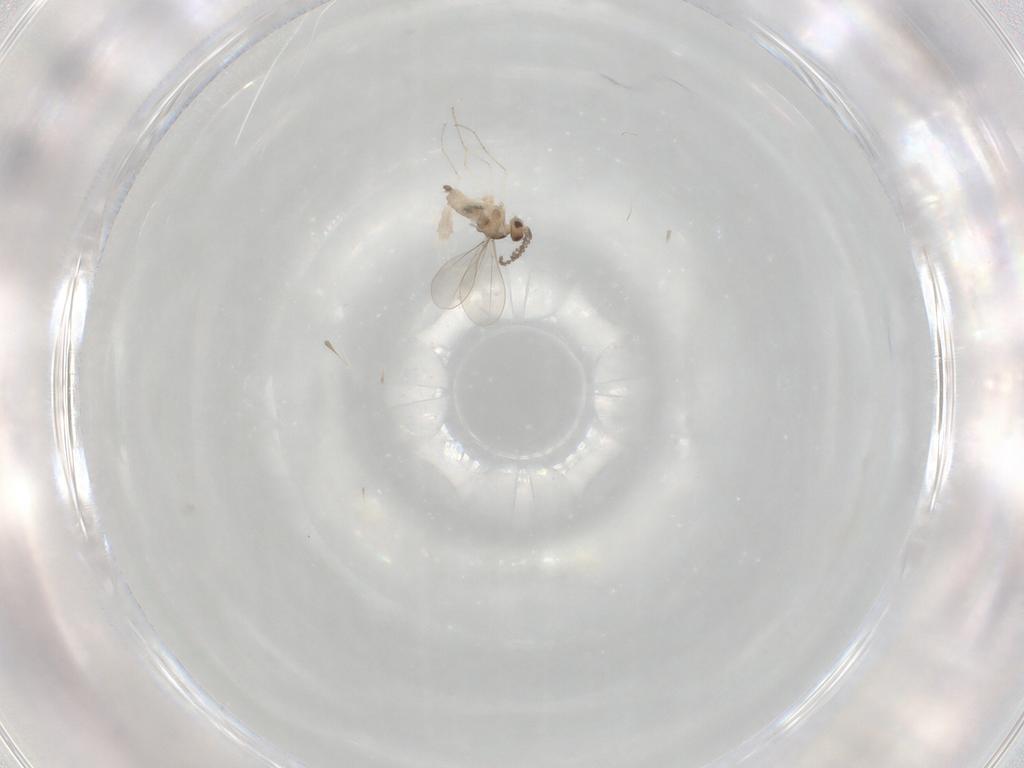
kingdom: Animalia
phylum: Arthropoda
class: Insecta
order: Diptera
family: Cecidomyiidae
